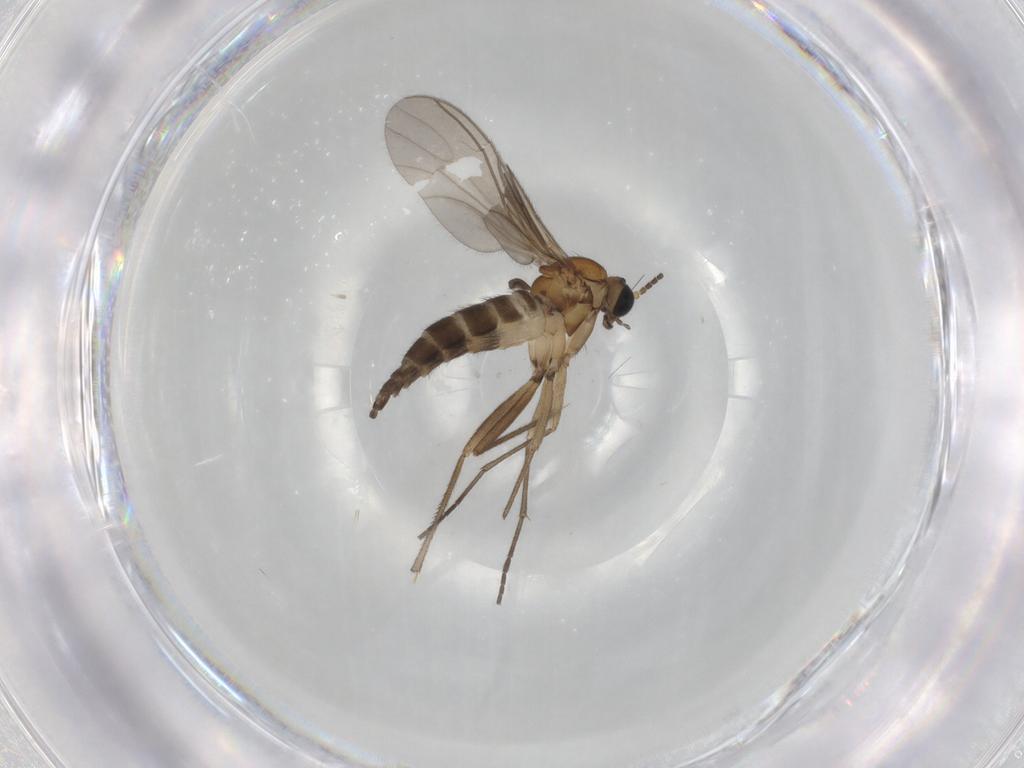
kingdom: Animalia
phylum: Arthropoda
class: Insecta
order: Diptera
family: Sciaridae
